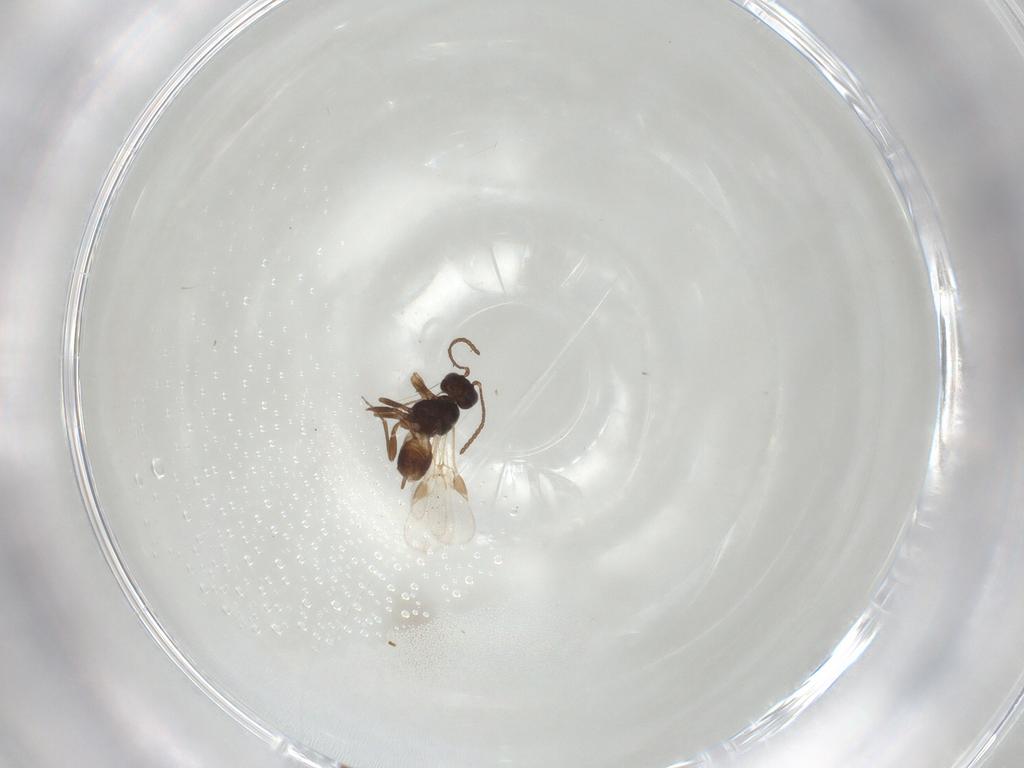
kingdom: Animalia
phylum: Arthropoda
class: Insecta
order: Hymenoptera
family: Braconidae
